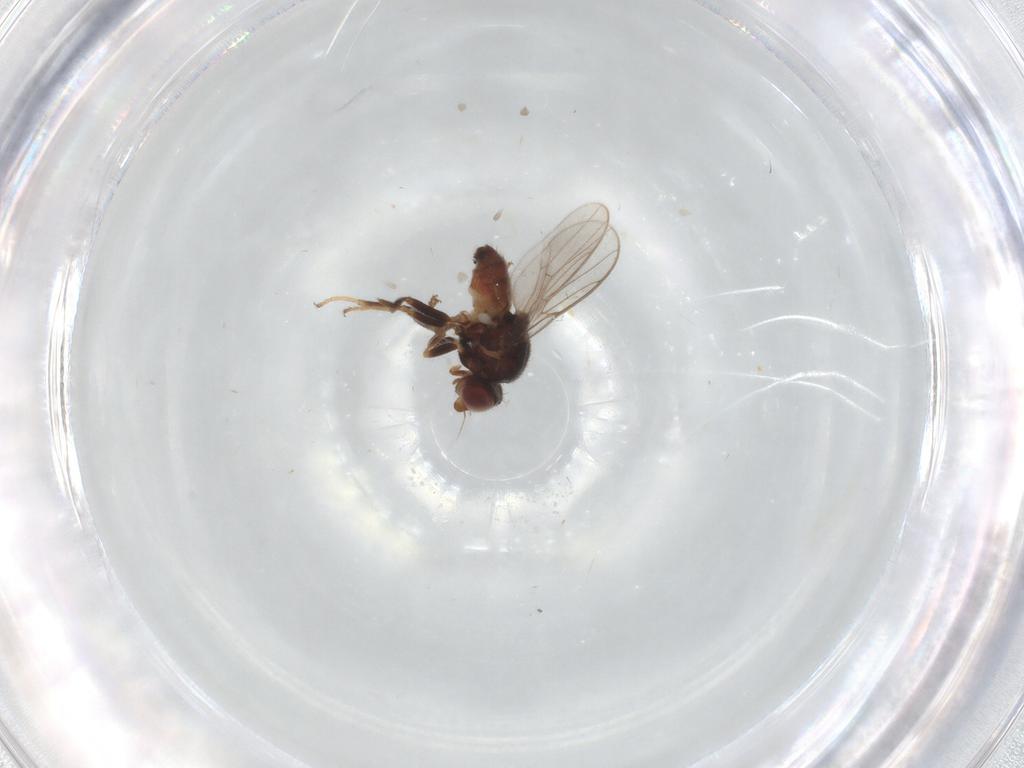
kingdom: Animalia
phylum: Arthropoda
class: Insecta
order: Diptera
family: Chloropidae
